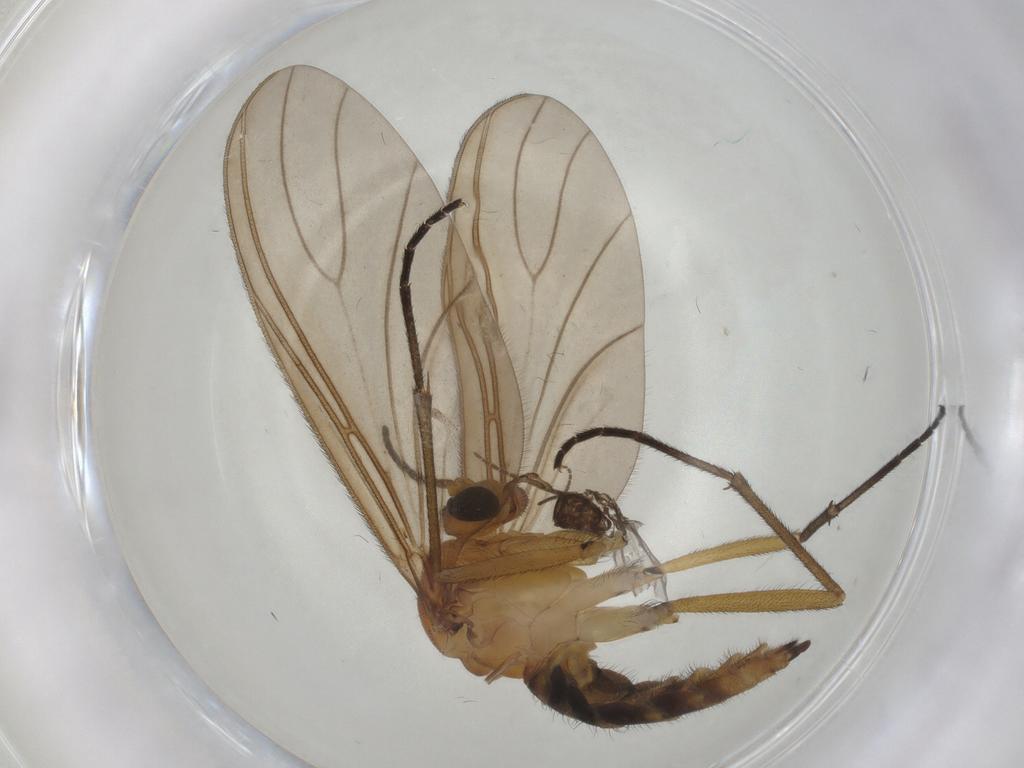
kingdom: Animalia
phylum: Arthropoda
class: Insecta
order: Diptera
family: Sciaridae
